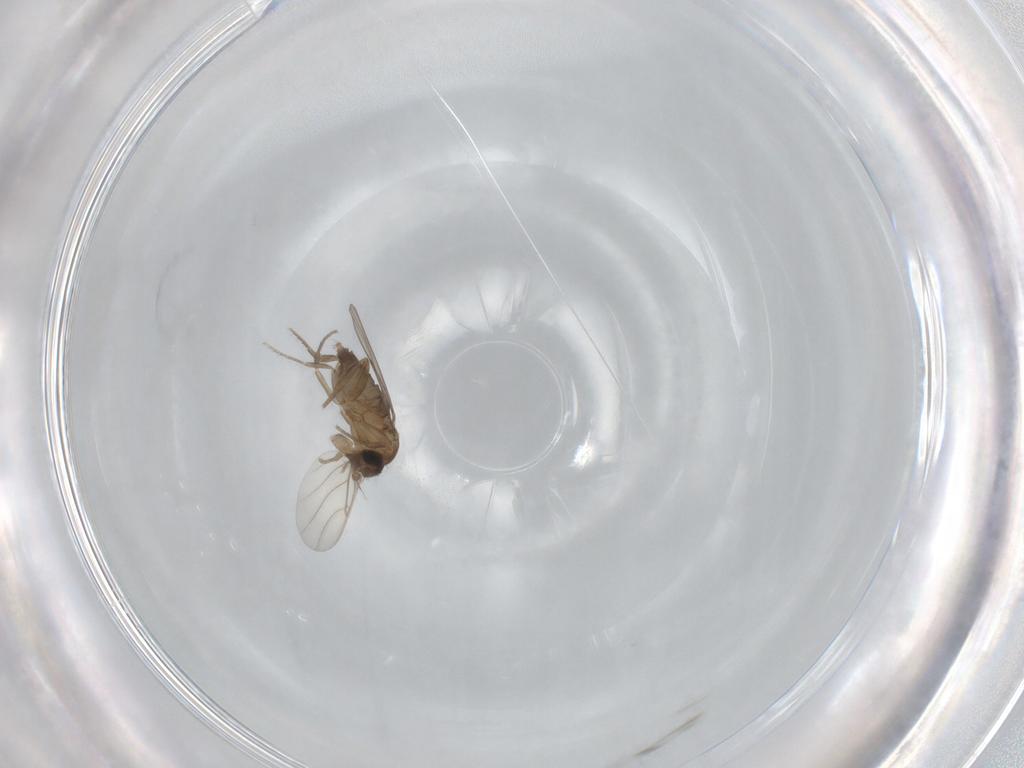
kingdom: Animalia
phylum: Arthropoda
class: Insecta
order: Diptera
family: Phoridae
